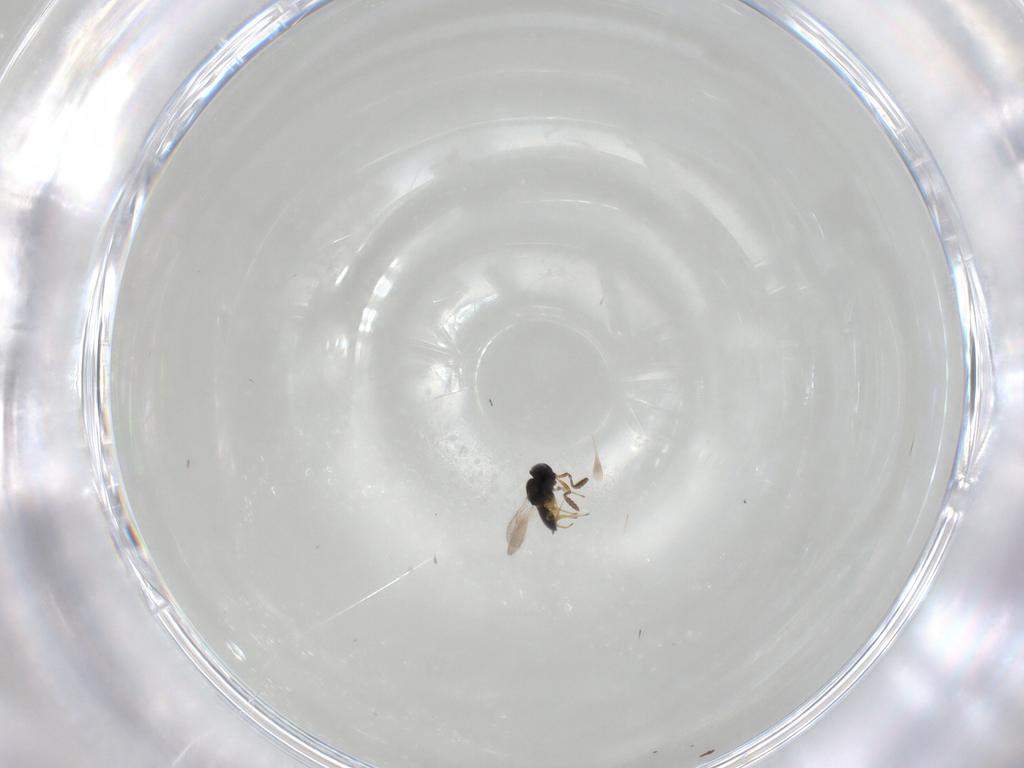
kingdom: Animalia
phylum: Arthropoda
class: Insecta
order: Hymenoptera
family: Scelionidae
